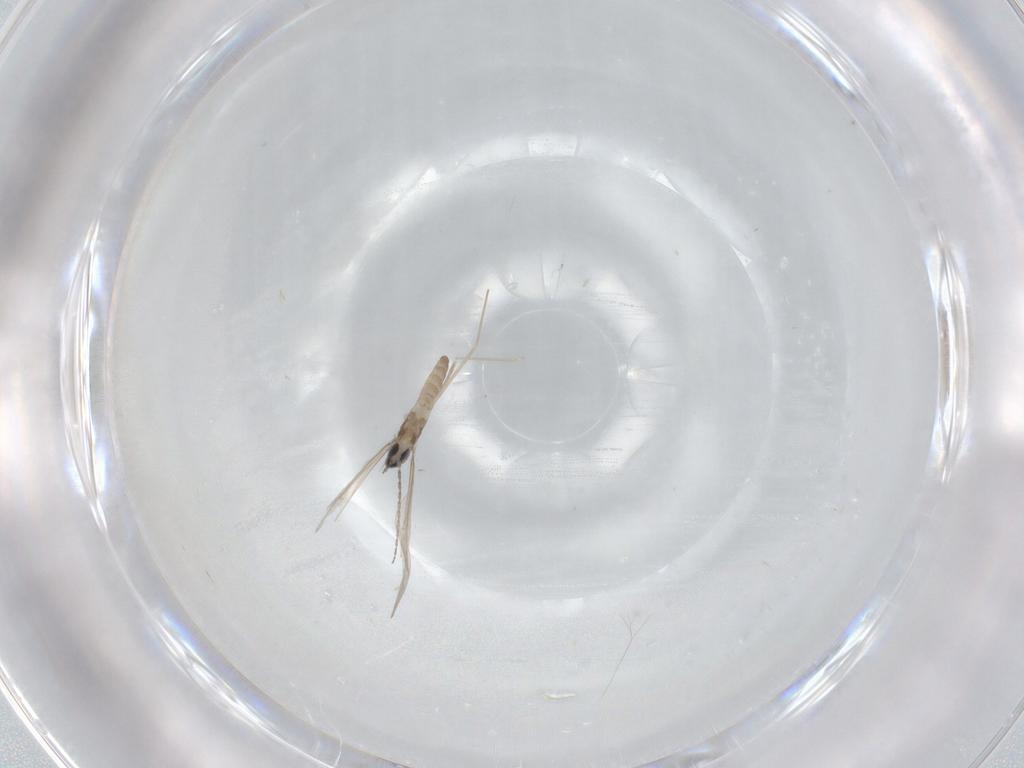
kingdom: Animalia
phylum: Arthropoda
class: Insecta
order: Diptera
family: Cecidomyiidae
